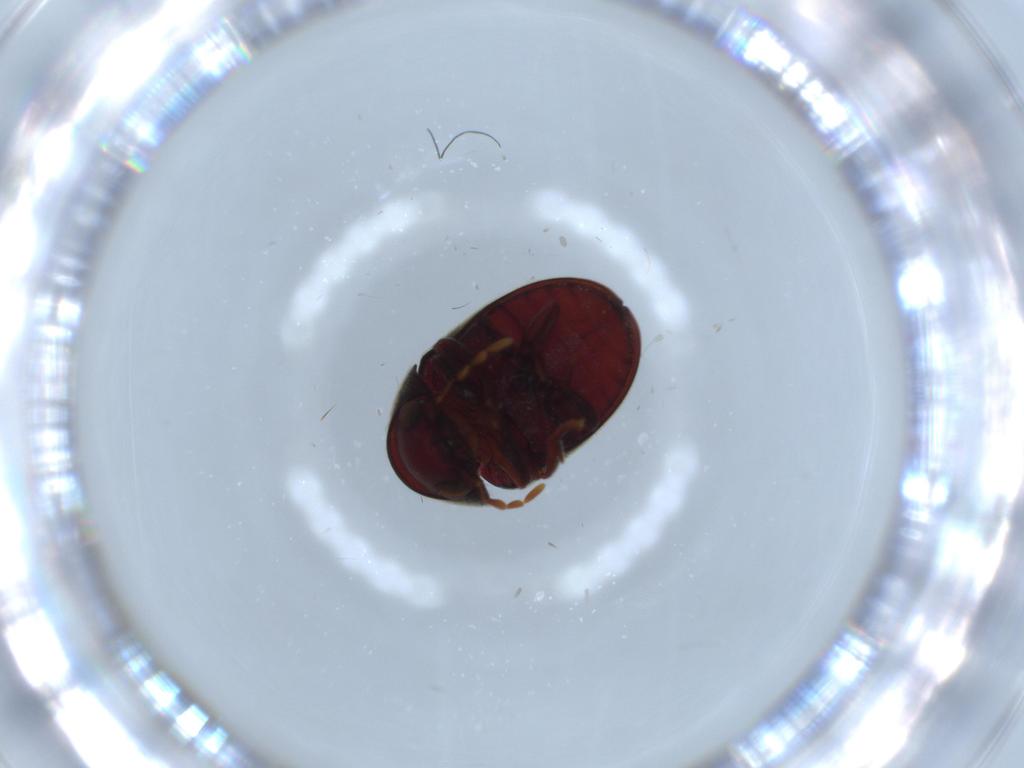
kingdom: Animalia
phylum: Arthropoda
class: Insecta
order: Coleoptera
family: Ptinidae
